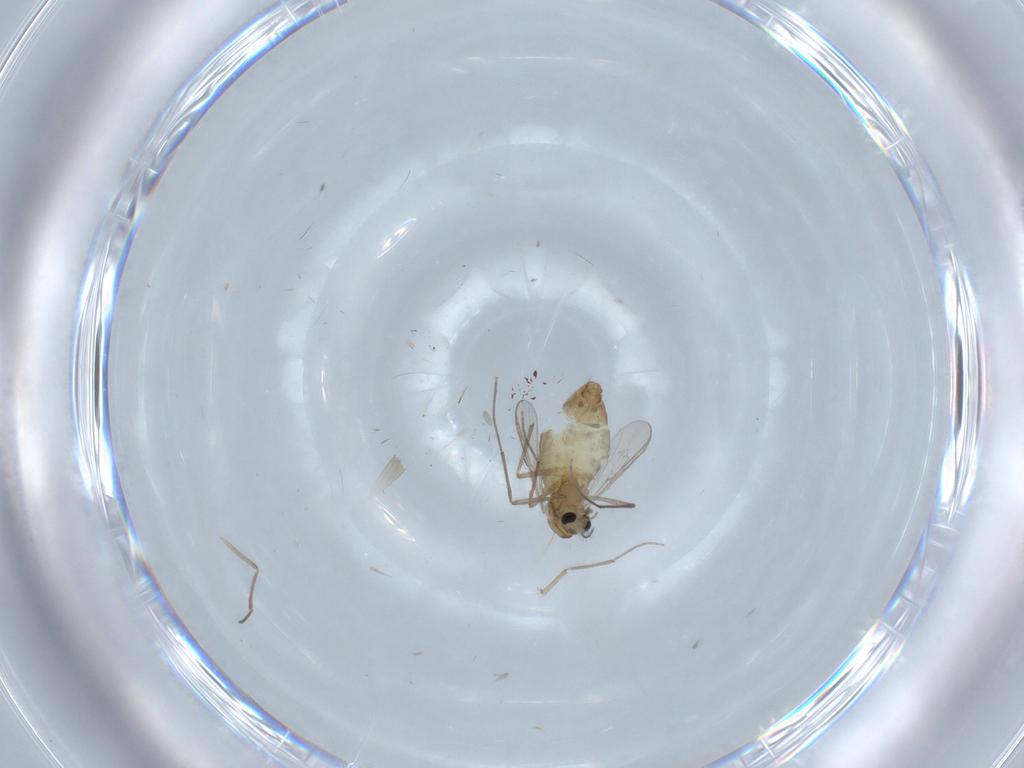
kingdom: Animalia
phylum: Arthropoda
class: Insecta
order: Diptera
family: Chironomidae
